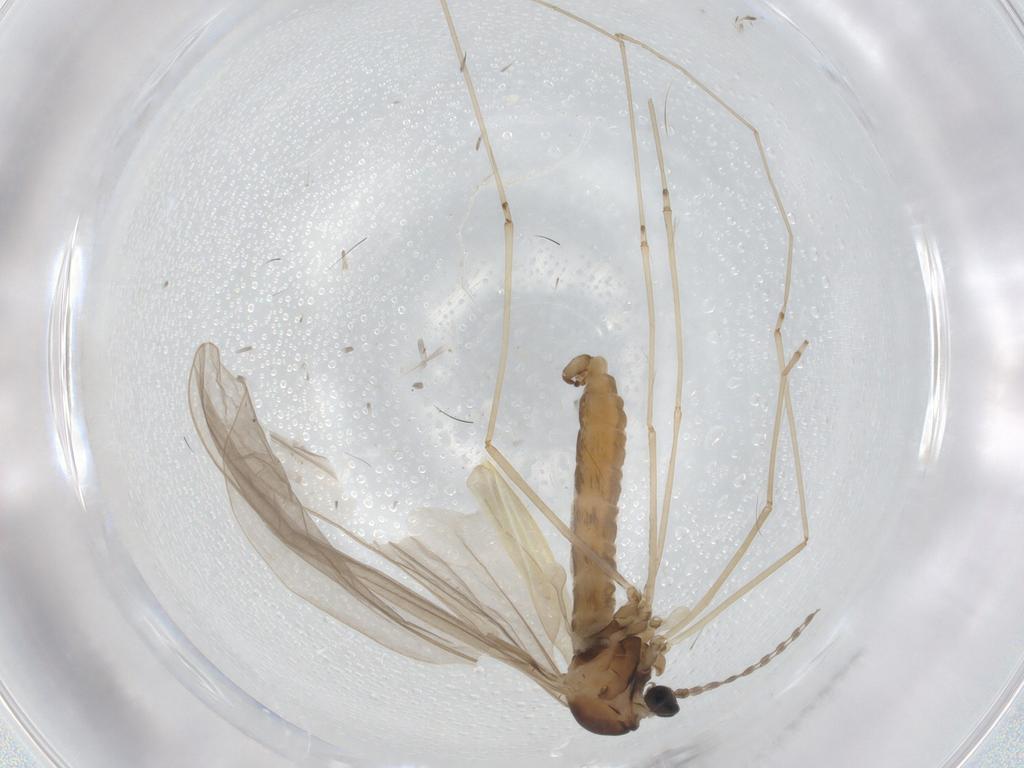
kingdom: Animalia
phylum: Arthropoda
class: Insecta
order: Diptera
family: Cecidomyiidae
